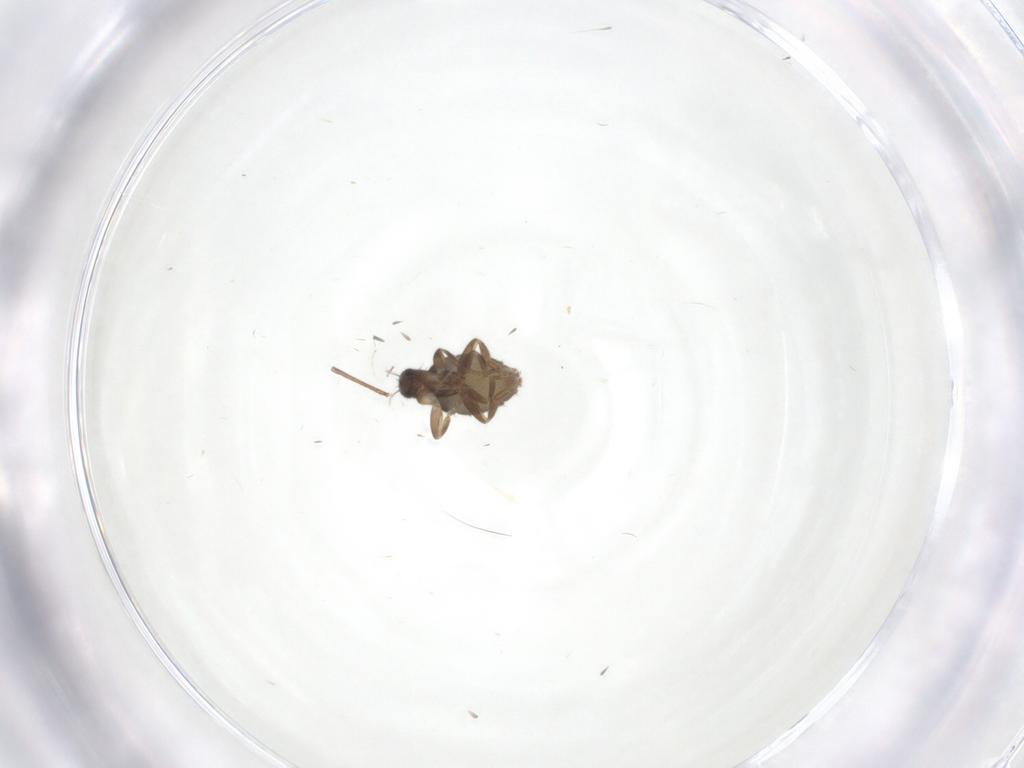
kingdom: Animalia
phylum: Arthropoda
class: Insecta
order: Diptera
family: Cecidomyiidae
